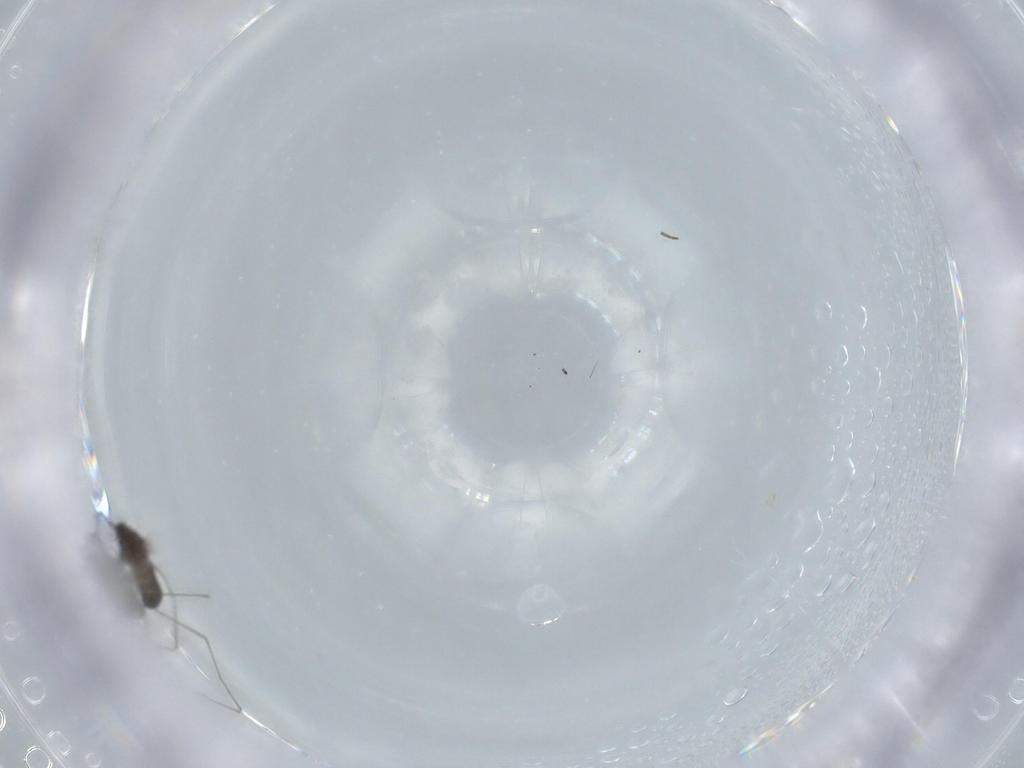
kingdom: Animalia
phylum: Arthropoda
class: Insecta
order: Diptera
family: Sciaridae
